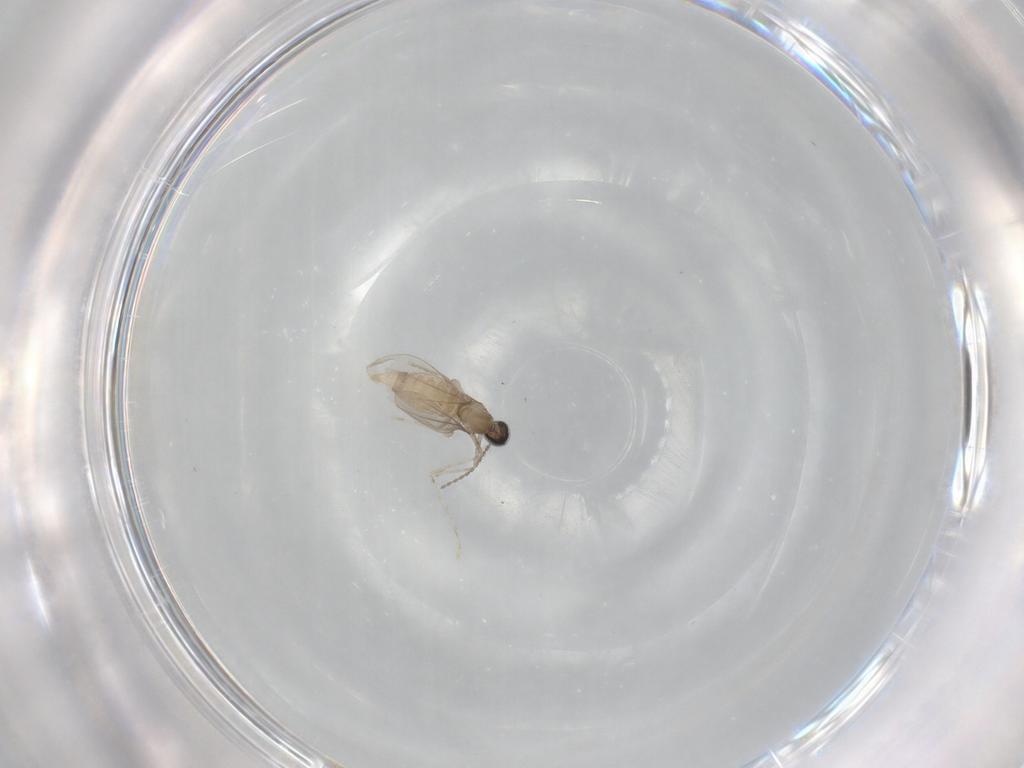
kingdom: Animalia
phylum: Arthropoda
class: Insecta
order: Diptera
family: Cecidomyiidae
